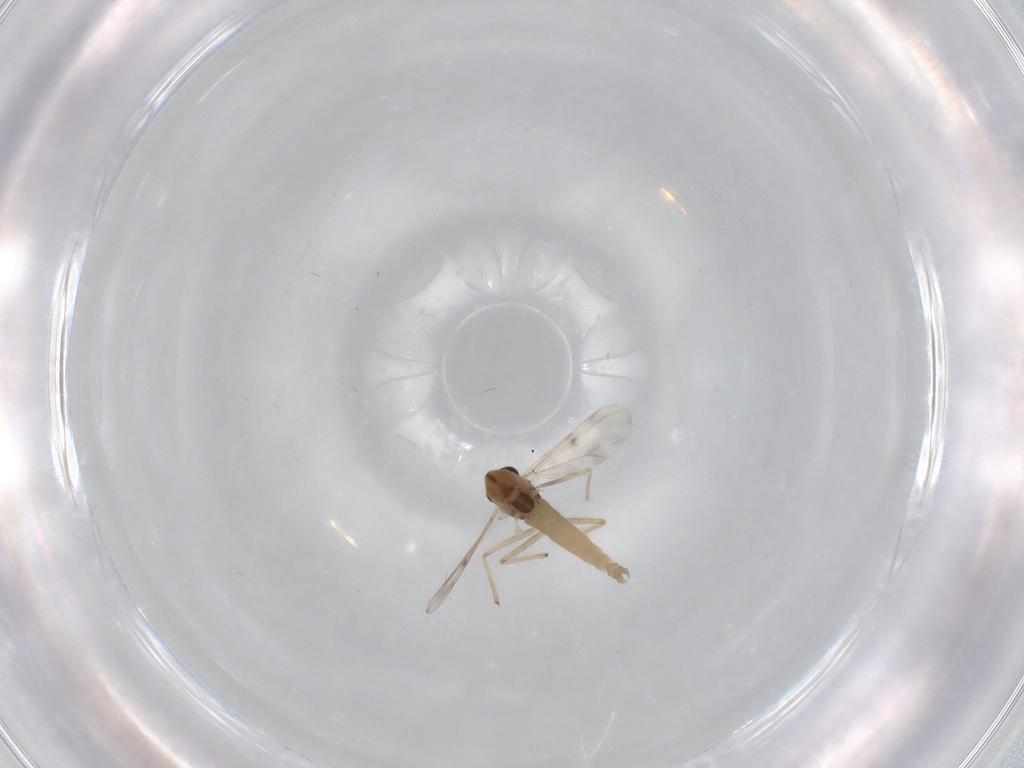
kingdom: Animalia
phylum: Arthropoda
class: Insecta
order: Diptera
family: Chironomidae
